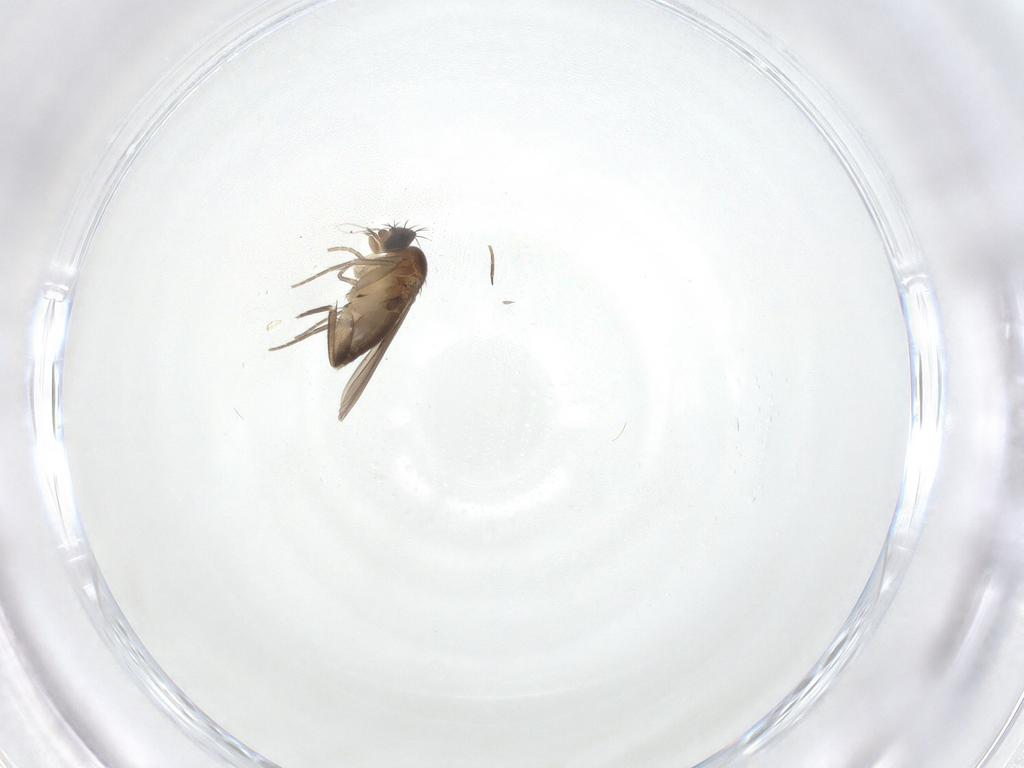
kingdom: Animalia
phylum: Arthropoda
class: Insecta
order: Diptera
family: Phoridae
